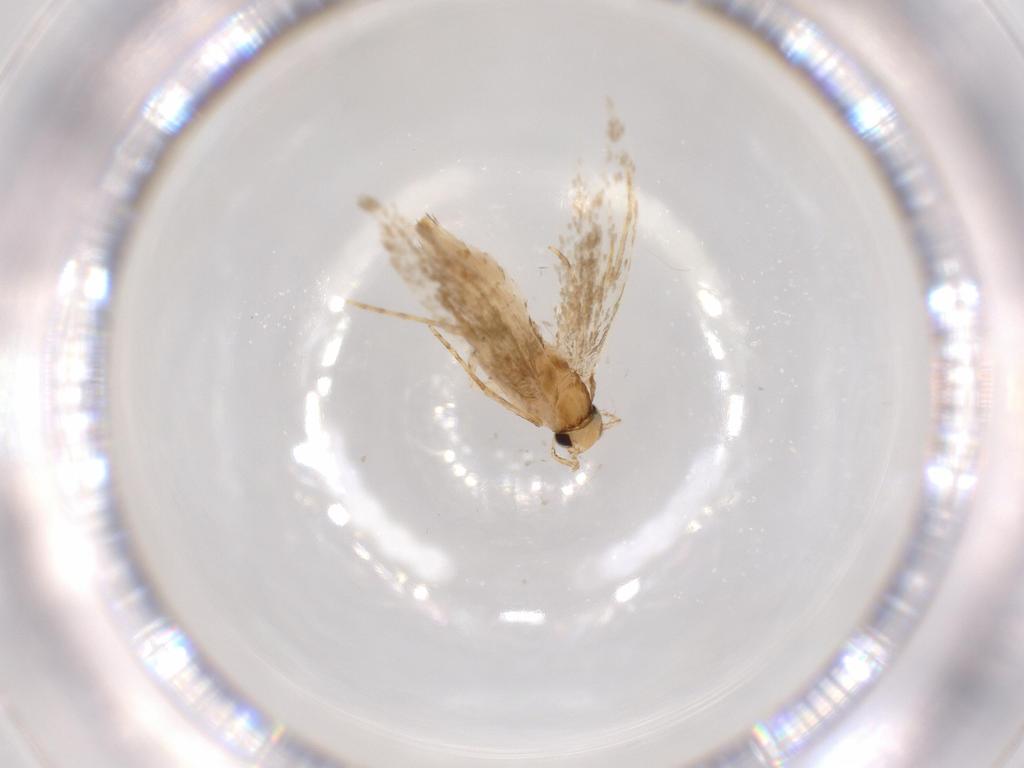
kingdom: Animalia
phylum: Arthropoda
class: Insecta
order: Lepidoptera
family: Tineidae
